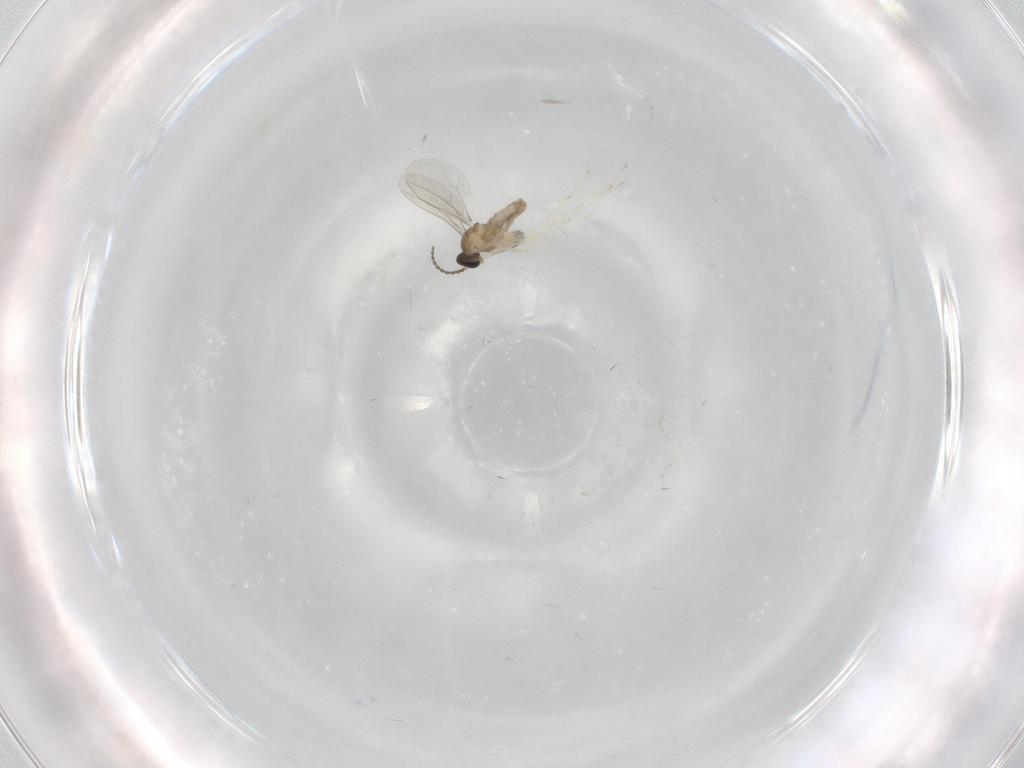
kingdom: Animalia
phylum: Arthropoda
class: Insecta
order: Diptera
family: Cecidomyiidae
